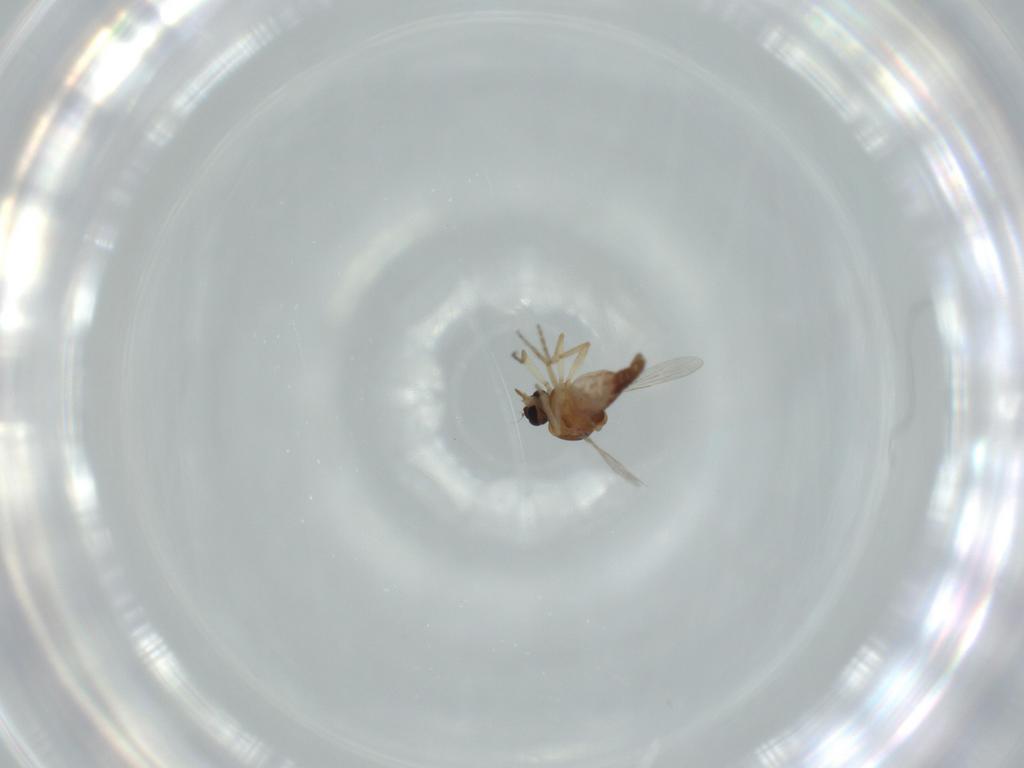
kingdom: Animalia
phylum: Arthropoda
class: Insecta
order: Diptera
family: Ceratopogonidae
